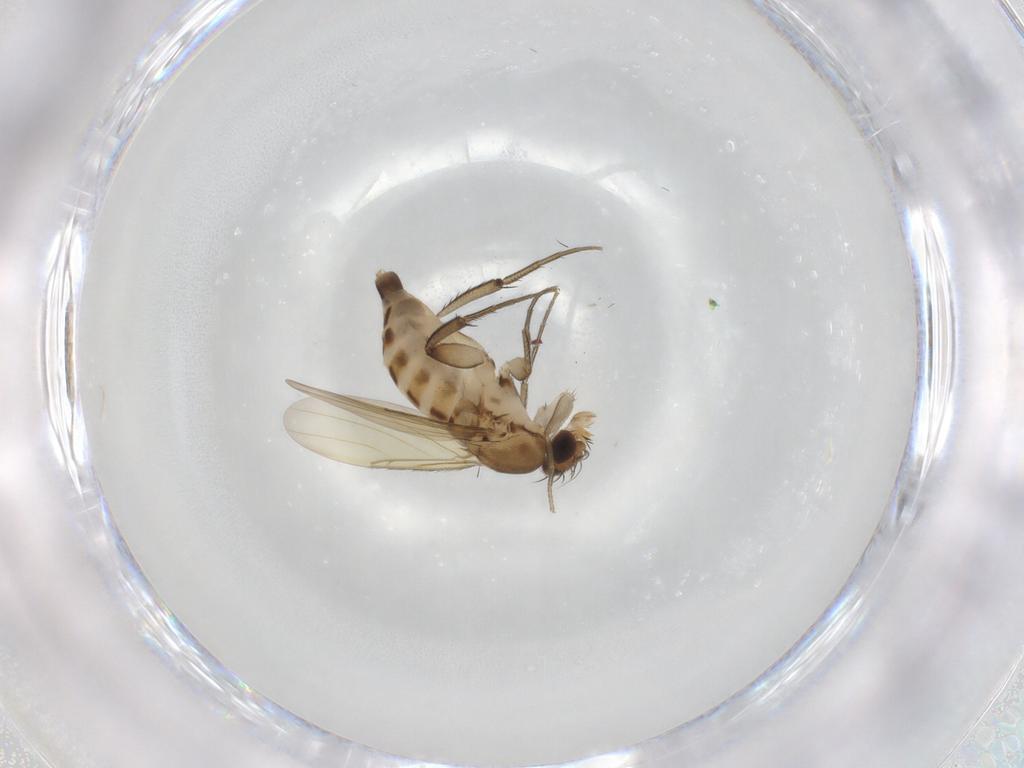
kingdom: Animalia
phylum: Arthropoda
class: Insecta
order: Diptera
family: Phoridae
